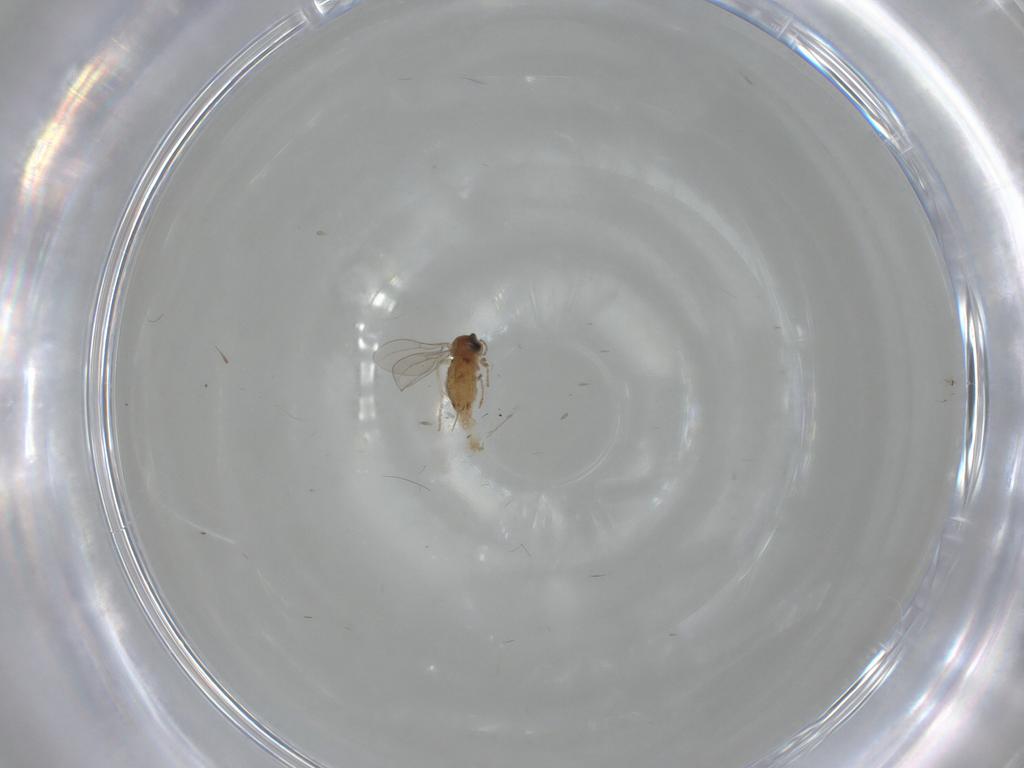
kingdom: Animalia
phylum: Arthropoda
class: Insecta
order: Diptera
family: Cecidomyiidae
